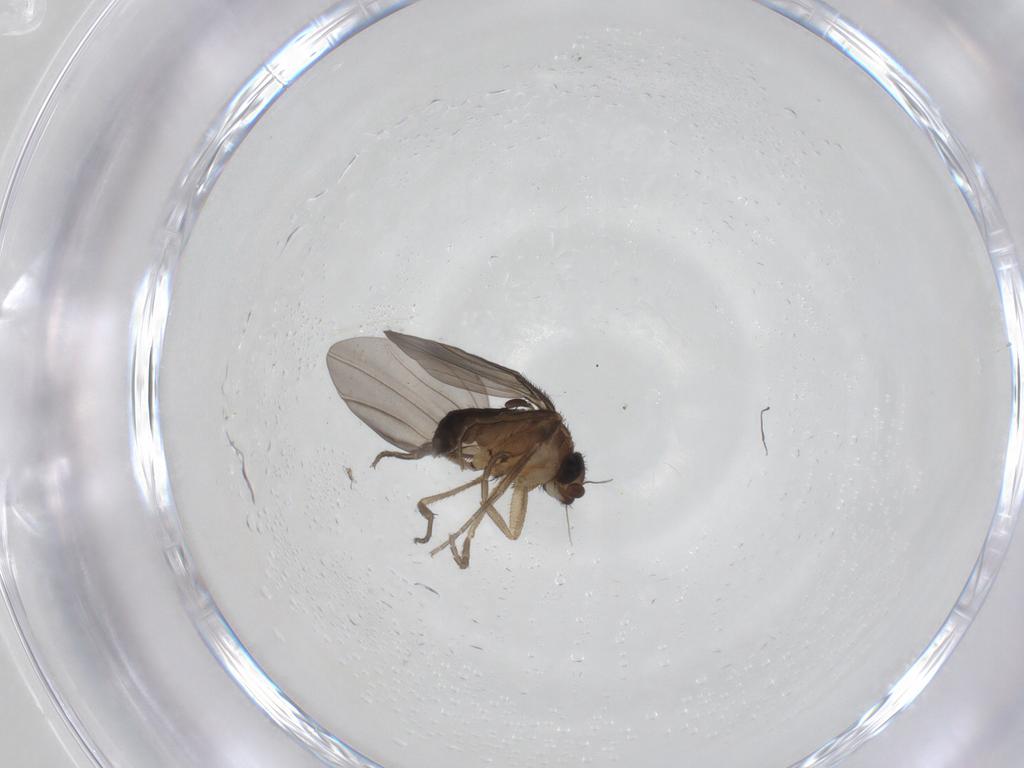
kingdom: Animalia
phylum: Arthropoda
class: Insecta
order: Diptera
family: Phoridae
